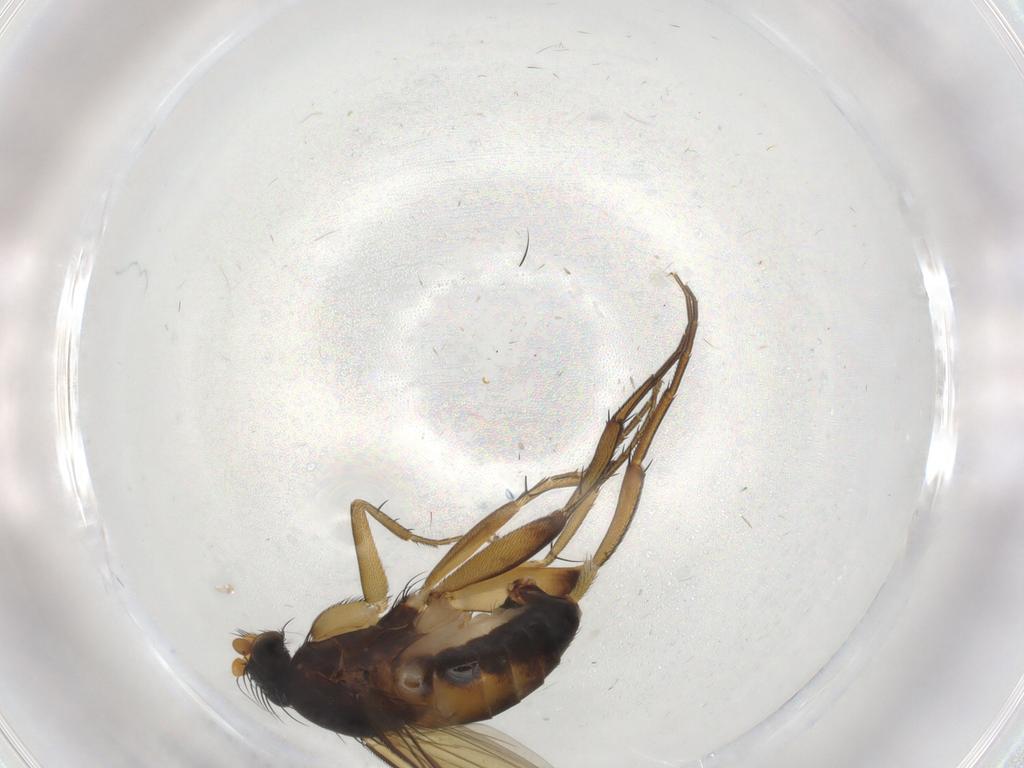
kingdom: Animalia
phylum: Arthropoda
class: Insecta
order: Diptera
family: Phoridae
